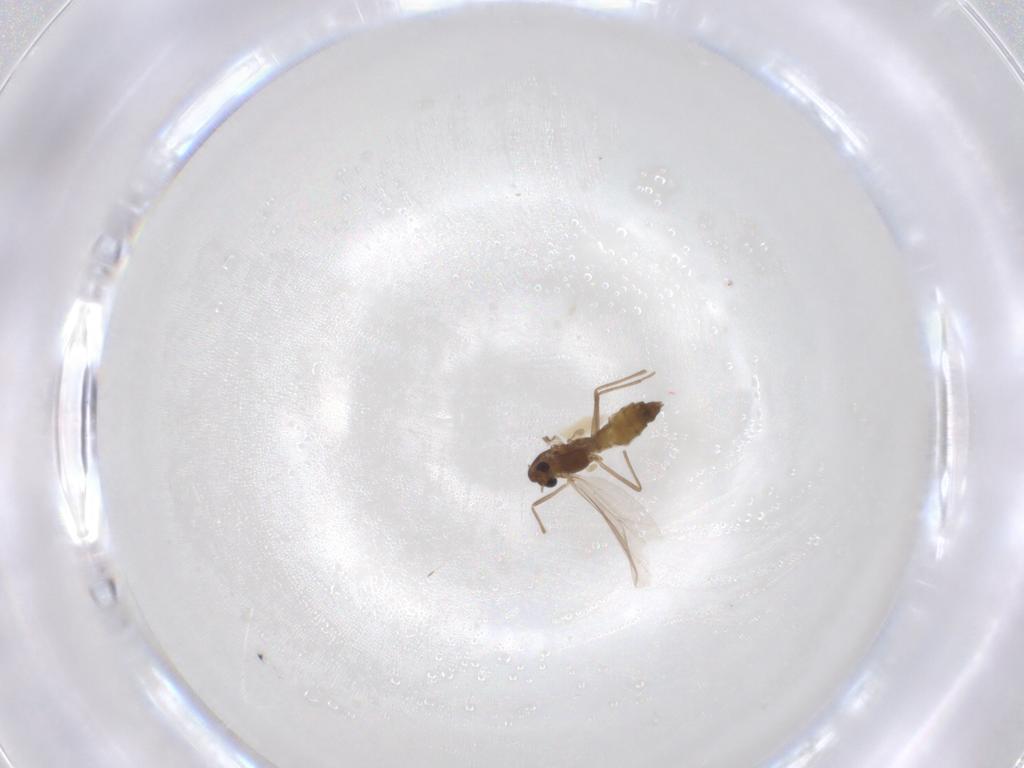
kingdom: Animalia
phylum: Arthropoda
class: Insecta
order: Diptera
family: Chironomidae
